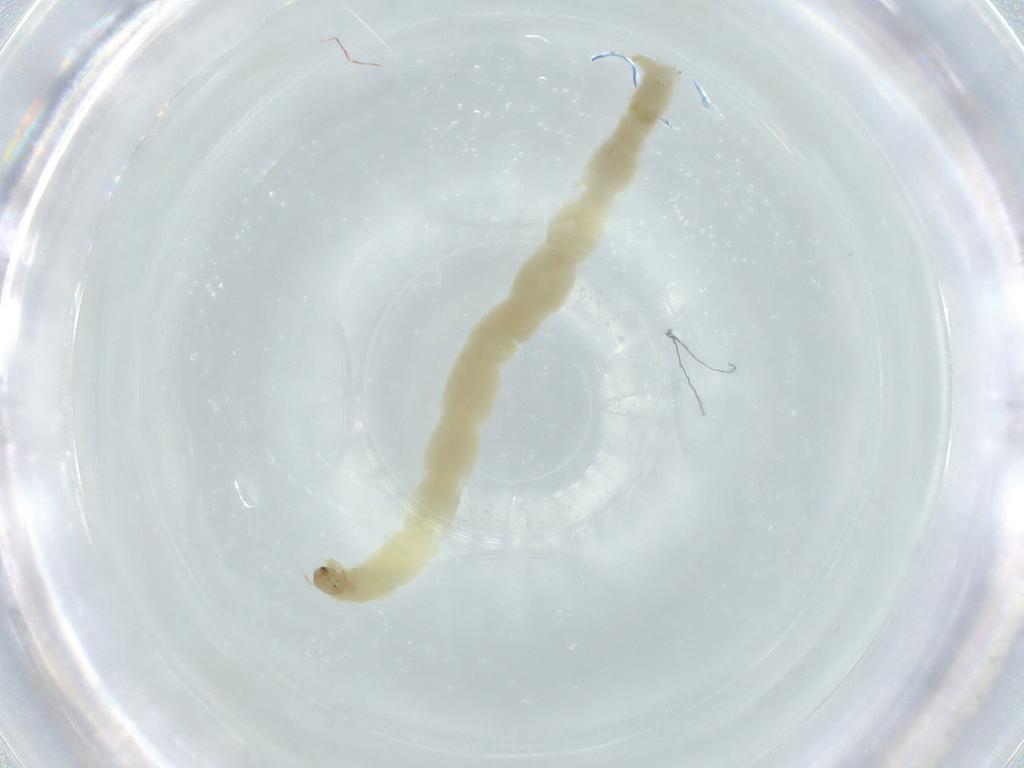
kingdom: Animalia
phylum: Arthropoda
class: Insecta
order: Diptera
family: Chironomidae
